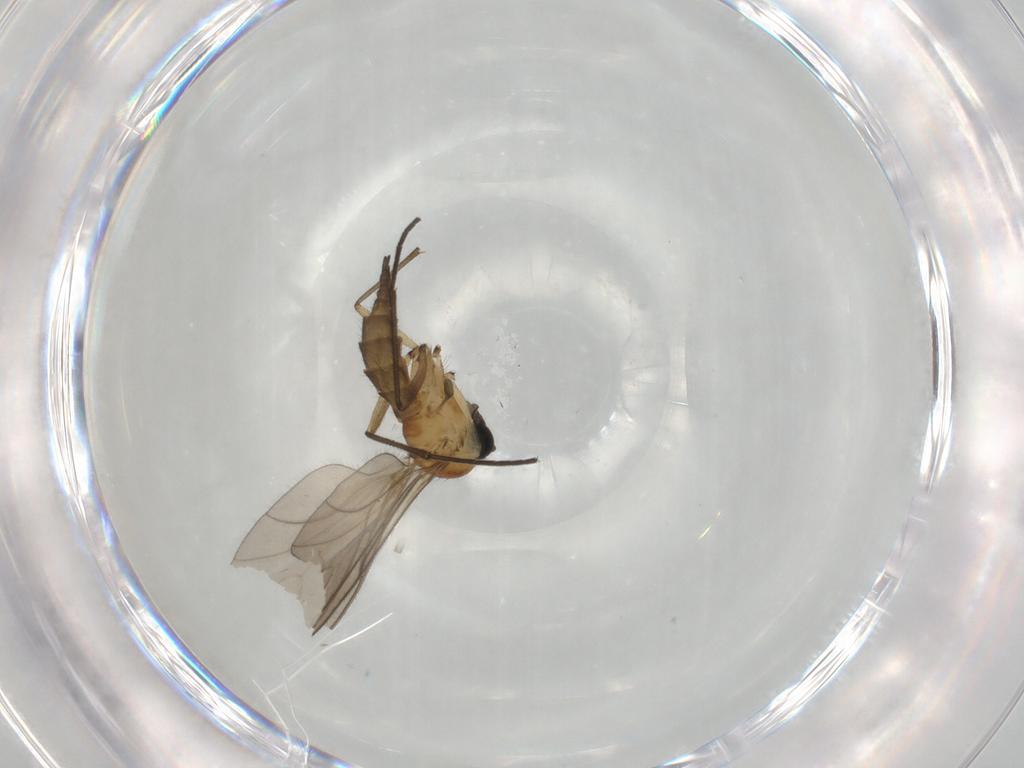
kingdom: Animalia
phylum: Arthropoda
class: Insecta
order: Diptera
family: Sciaridae
